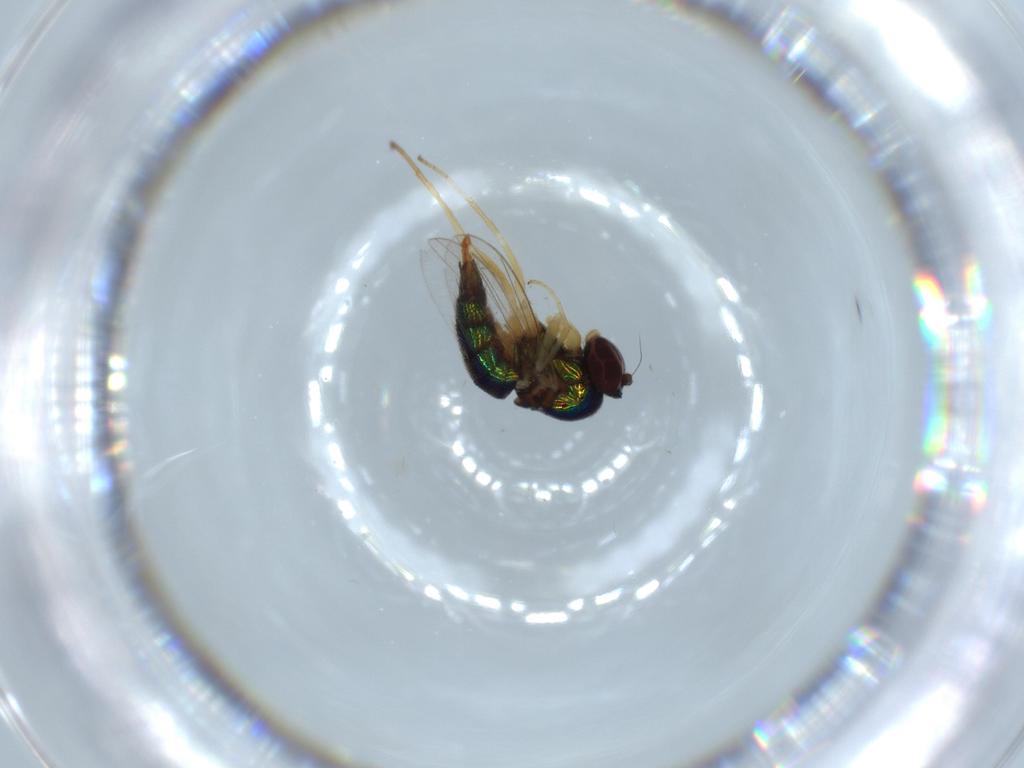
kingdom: Animalia
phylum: Arthropoda
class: Insecta
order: Diptera
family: Dolichopodidae
